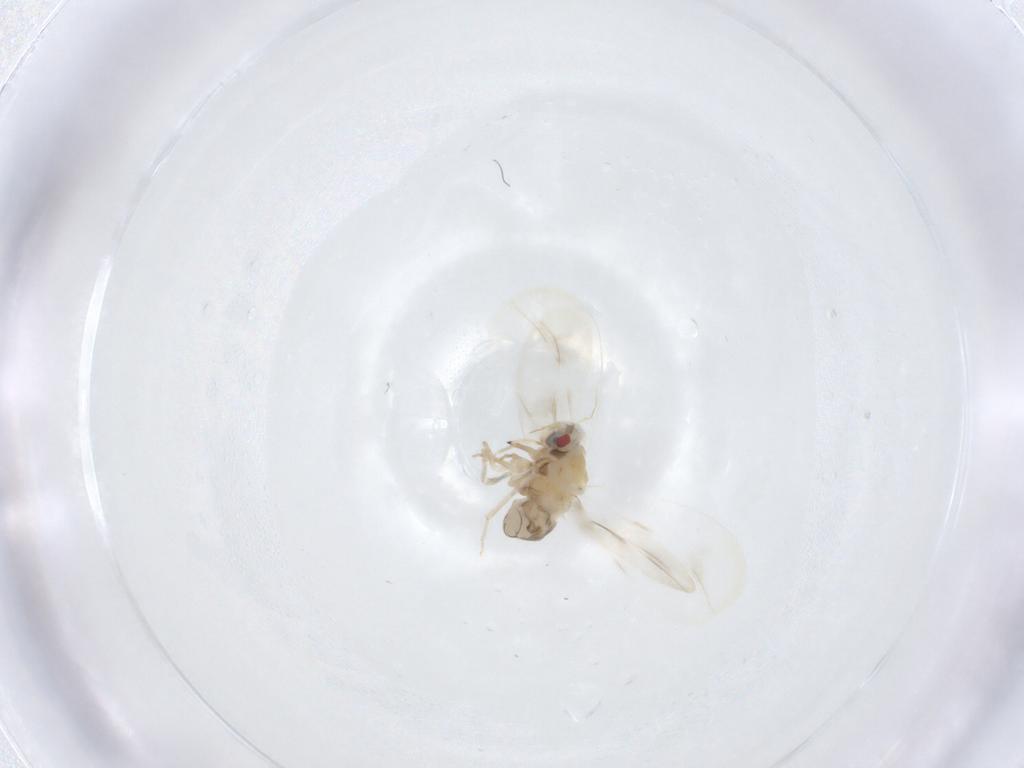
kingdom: Animalia
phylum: Arthropoda
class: Insecta
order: Hemiptera
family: Aleyrodidae
